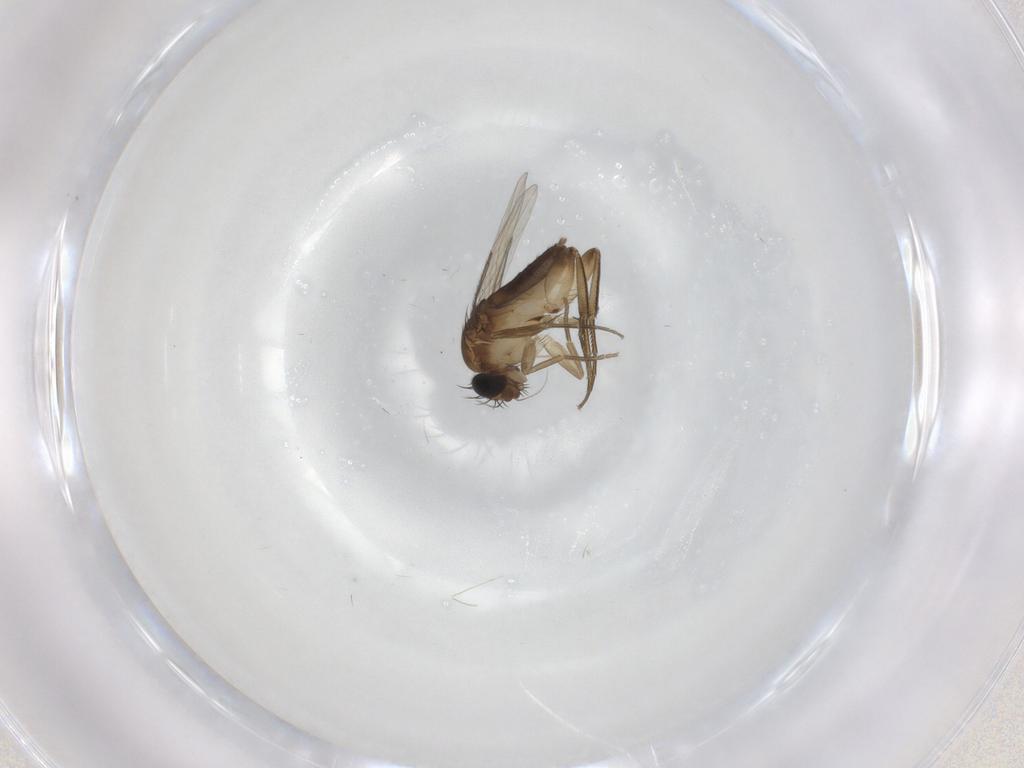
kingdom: Animalia
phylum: Arthropoda
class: Insecta
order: Diptera
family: Phoridae
